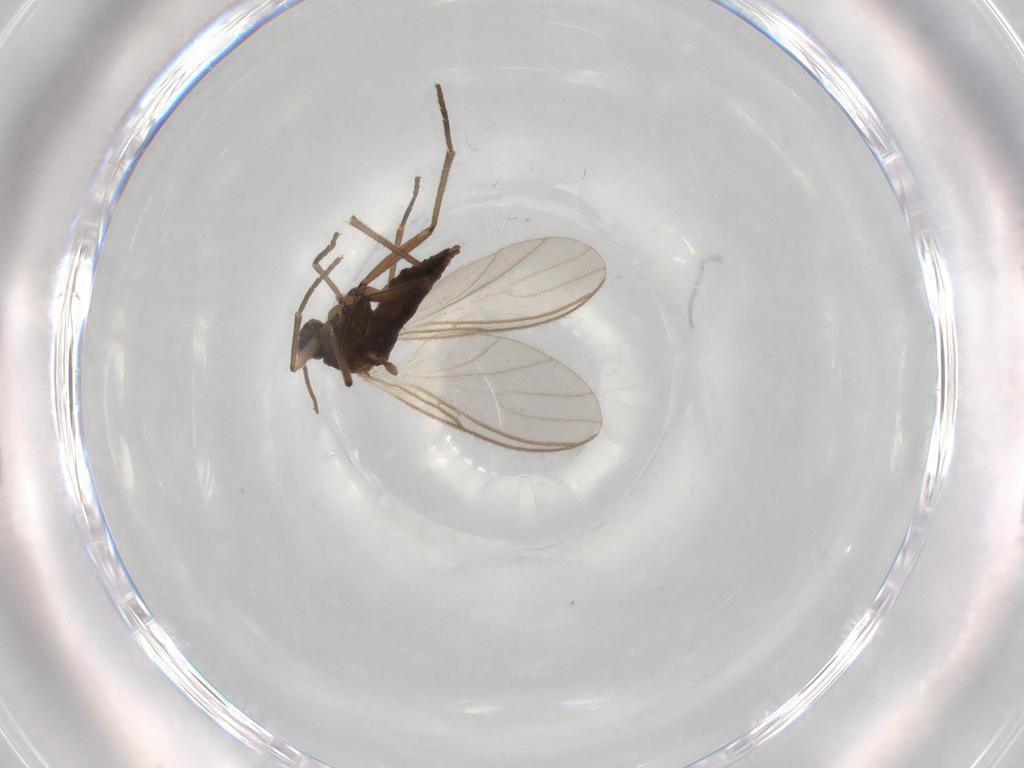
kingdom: Animalia
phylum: Arthropoda
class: Insecta
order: Diptera
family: Sciaridae
